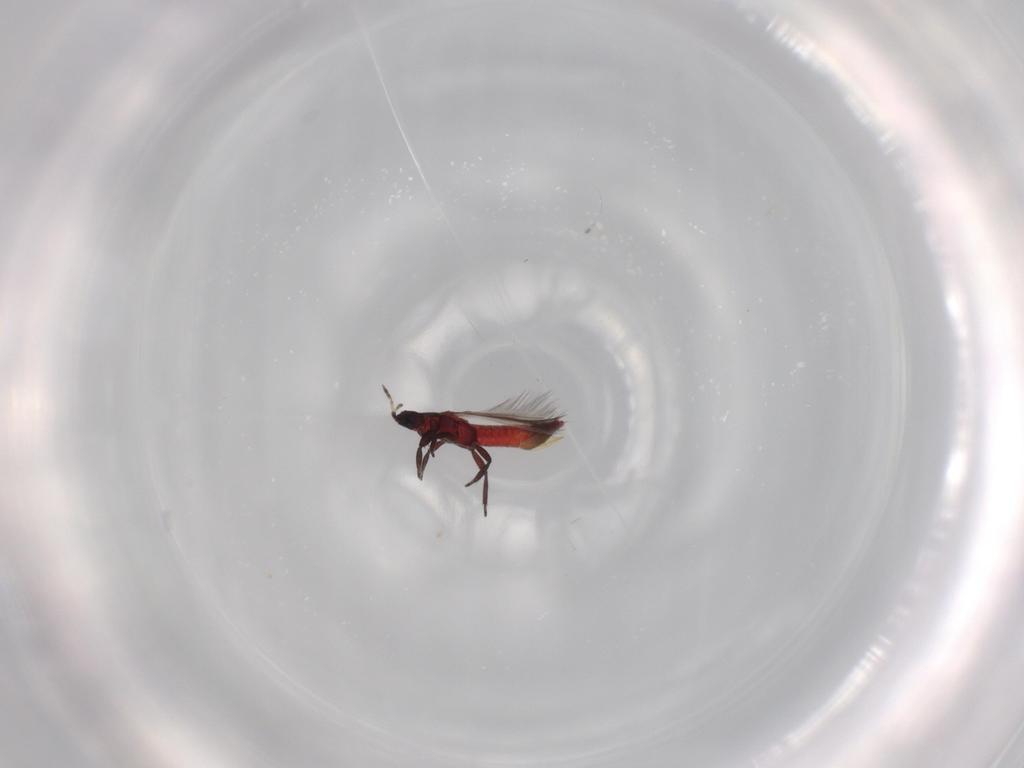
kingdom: Animalia
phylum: Arthropoda
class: Insecta
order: Thysanoptera
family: Aeolothripidae
